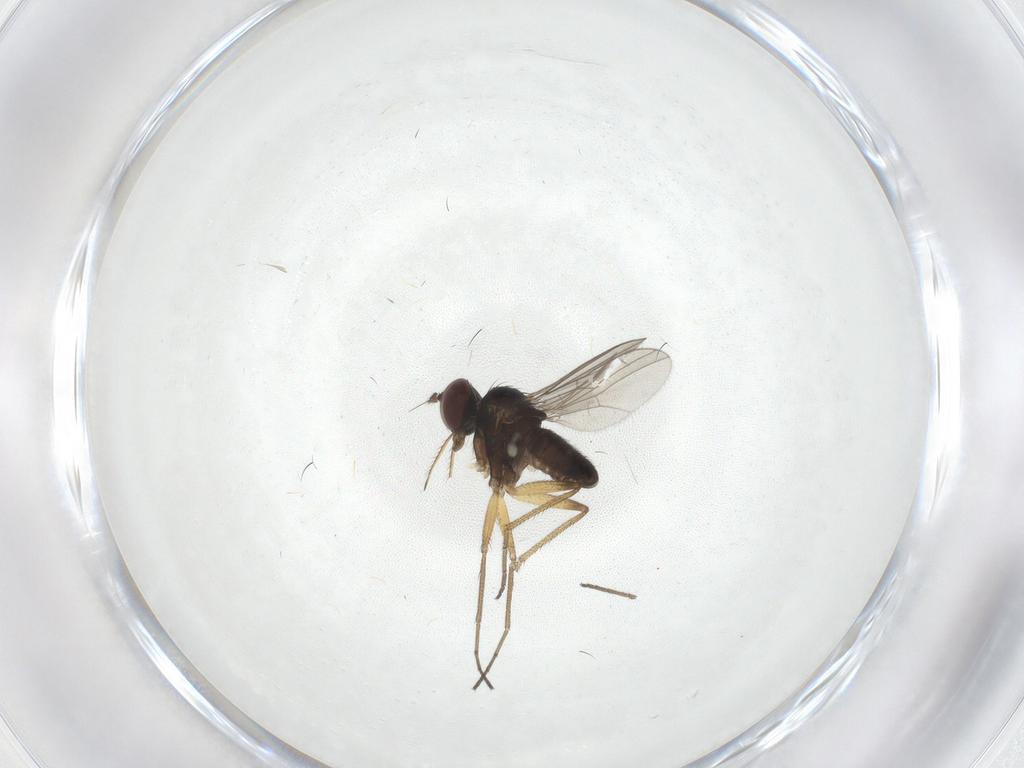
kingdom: Animalia
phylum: Arthropoda
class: Insecta
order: Diptera
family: Dolichopodidae
